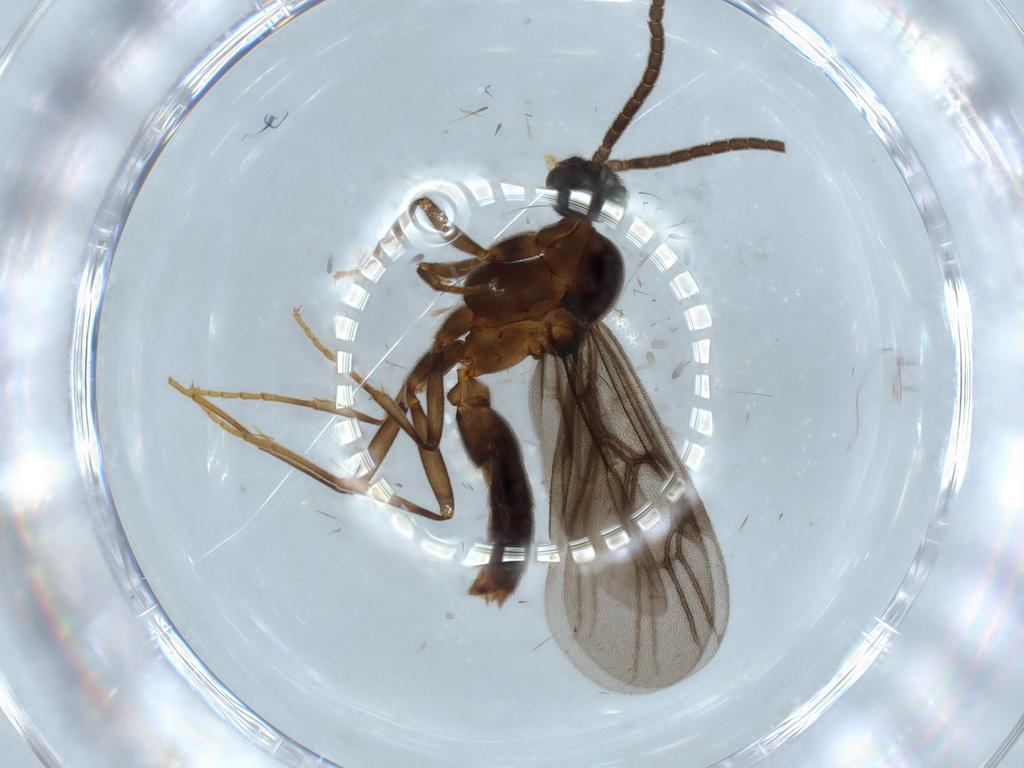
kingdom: Animalia
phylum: Arthropoda
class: Insecta
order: Hymenoptera
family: Formicidae
